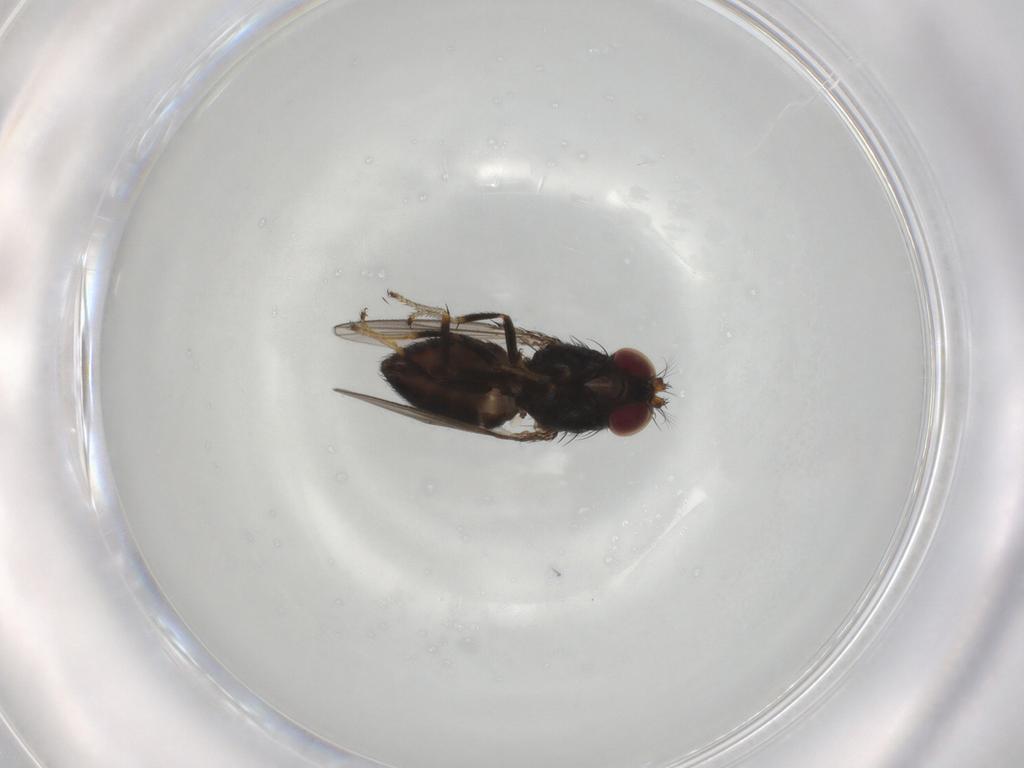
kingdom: Animalia
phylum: Arthropoda
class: Insecta
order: Diptera
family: Ephydridae
